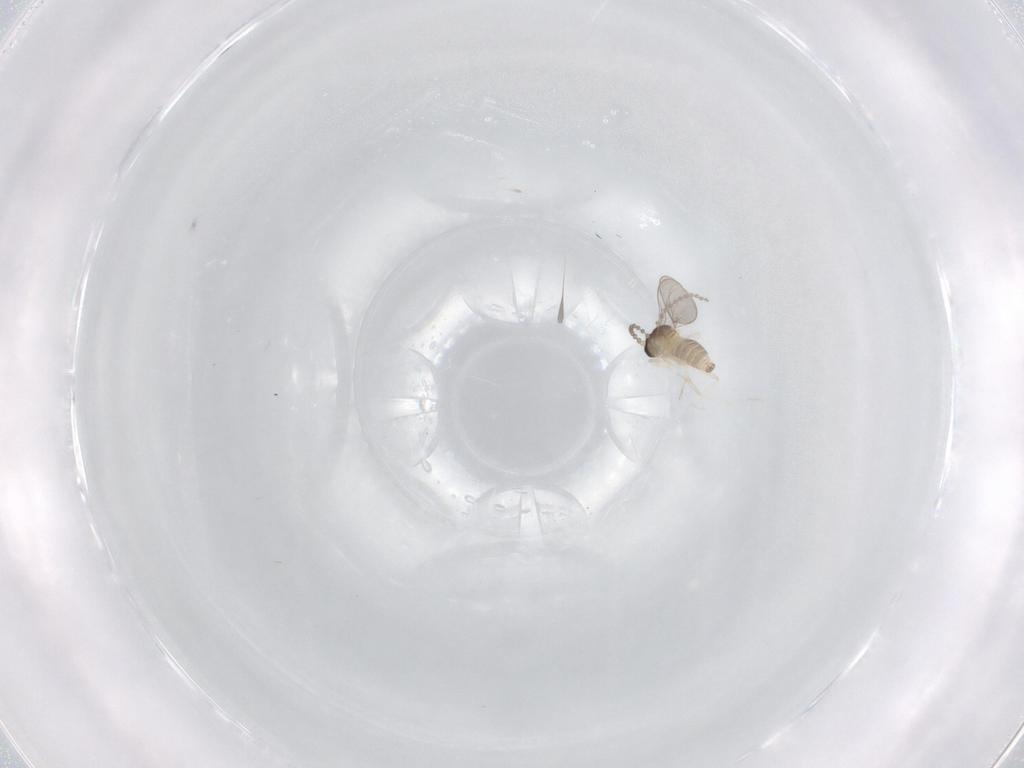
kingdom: Animalia
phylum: Arthropoda
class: Insecta
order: Diptera
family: Cecidomyiidae
